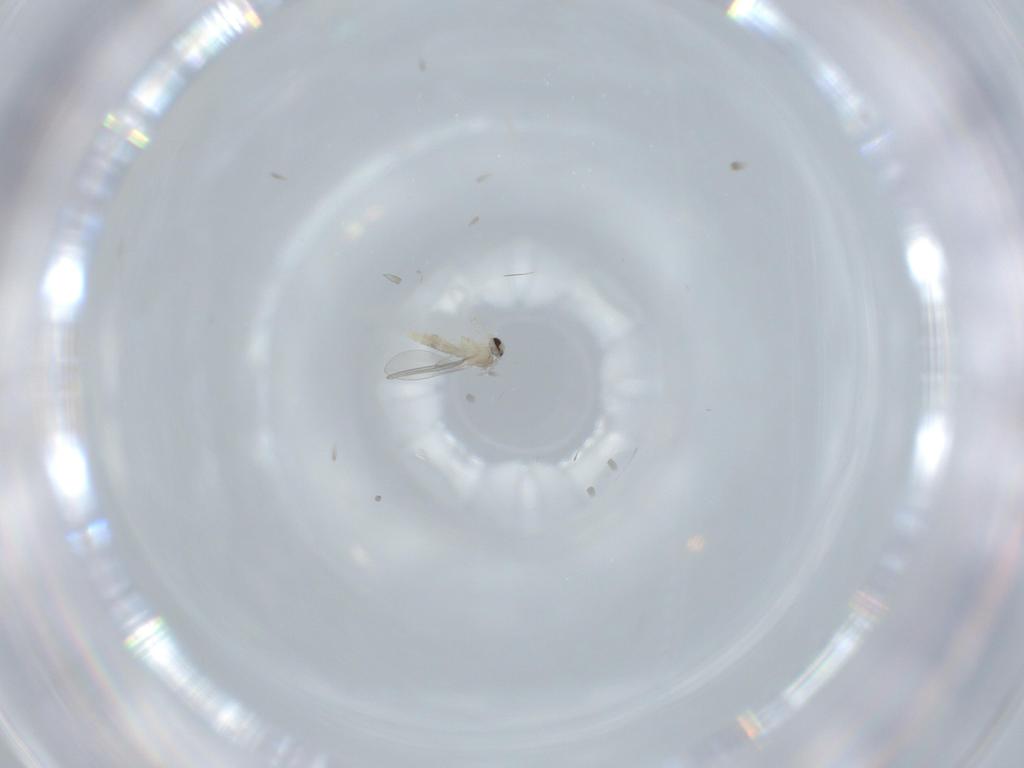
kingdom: Animalia
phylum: Arthropoda
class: Insecta
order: Diptera
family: Cecidomyiidae
